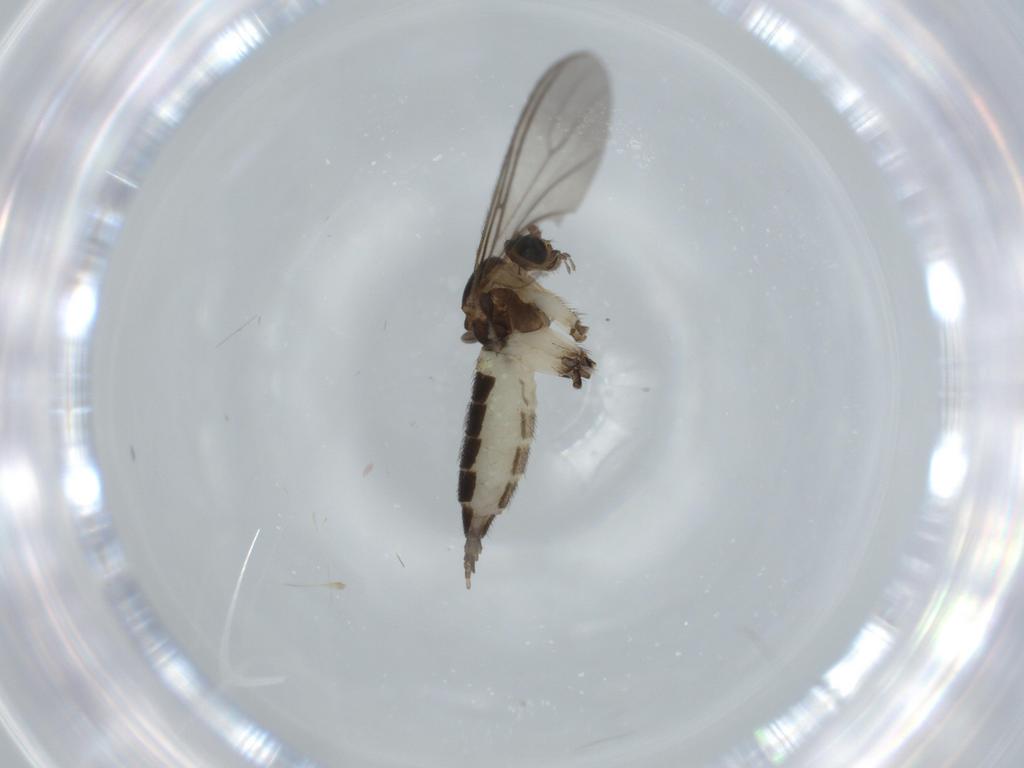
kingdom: Animalia
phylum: Arthropoda
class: Insecta
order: Diptera
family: Sciaridae
